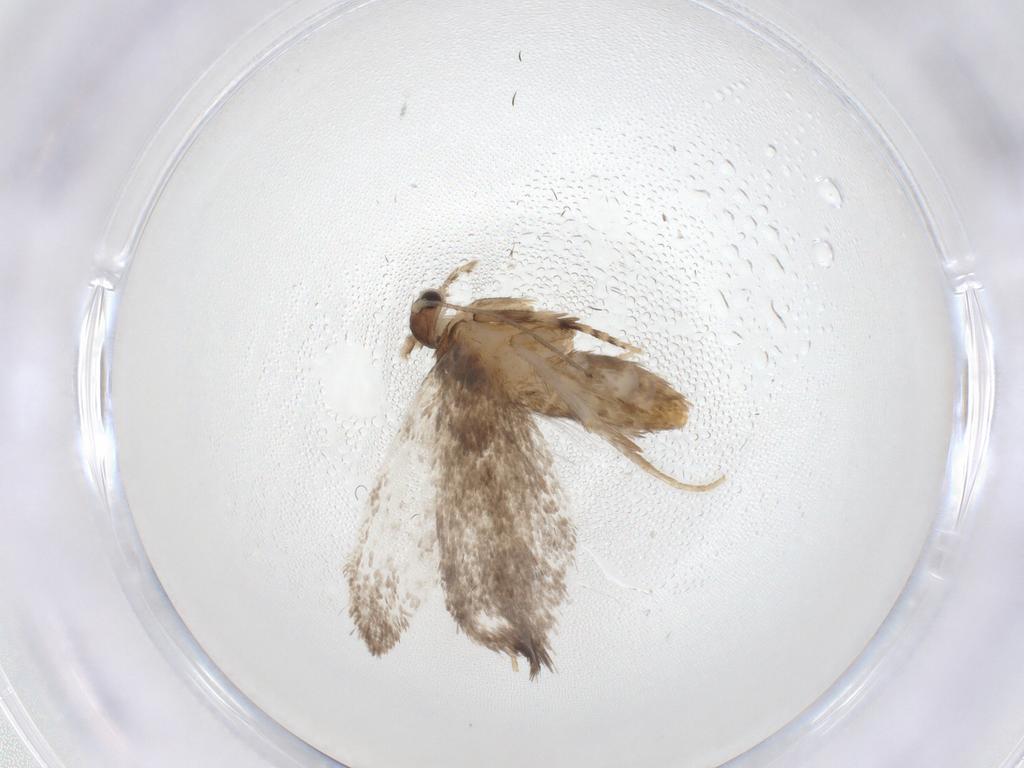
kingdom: Animalia
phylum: Arthropoda
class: Insecta
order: Lepidoptera
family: Dryadaulidae
